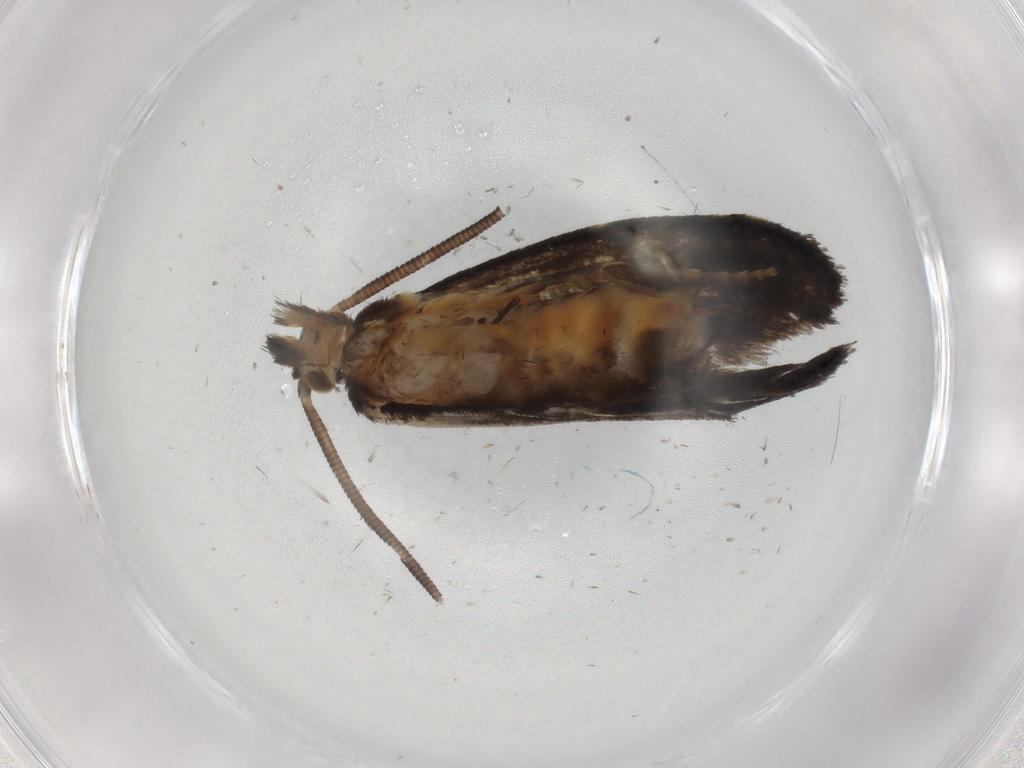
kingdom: Animalia
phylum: Arthropoda
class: Insecta
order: Lepidoptera
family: Dryadaulidae
